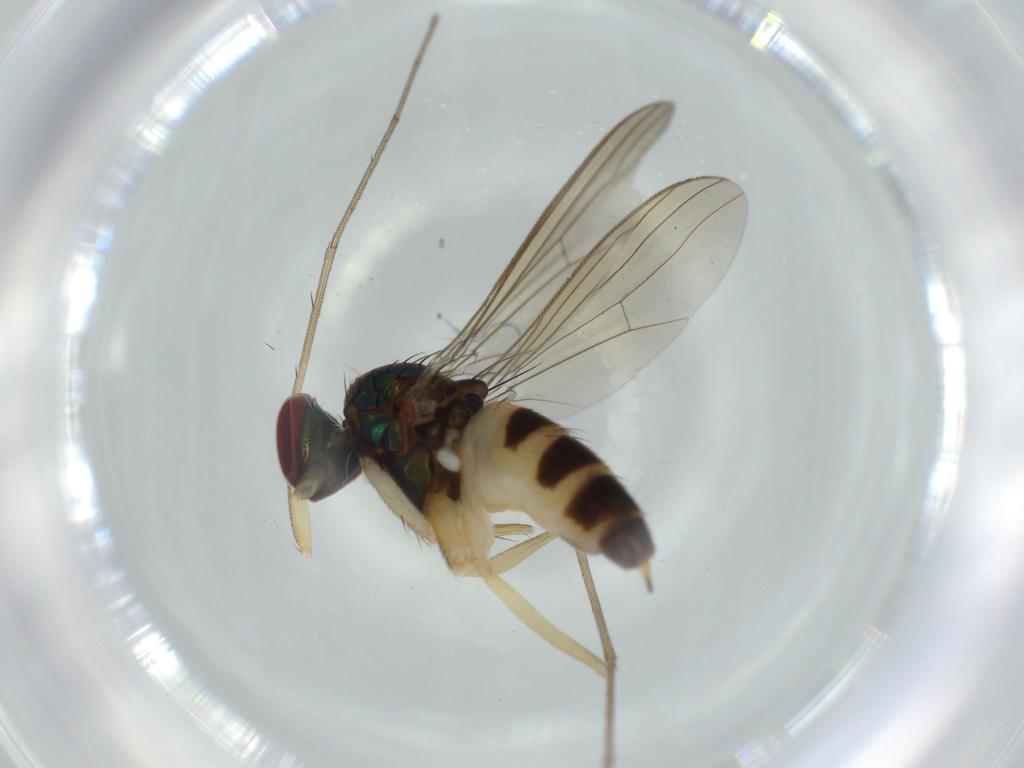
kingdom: Animalia
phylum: Arthropoda
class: Insecta
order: Diptera
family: Dolichopodidae
